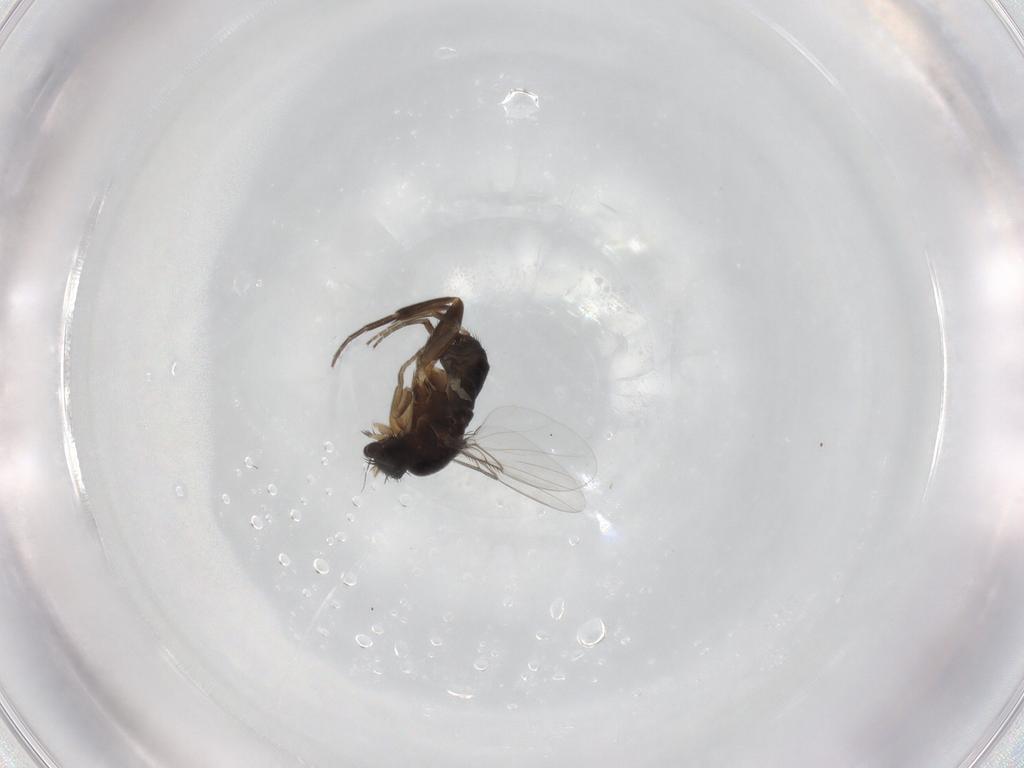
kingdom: Animalia
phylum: Arthropoda
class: Insecta
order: Diptera
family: Phoridae
